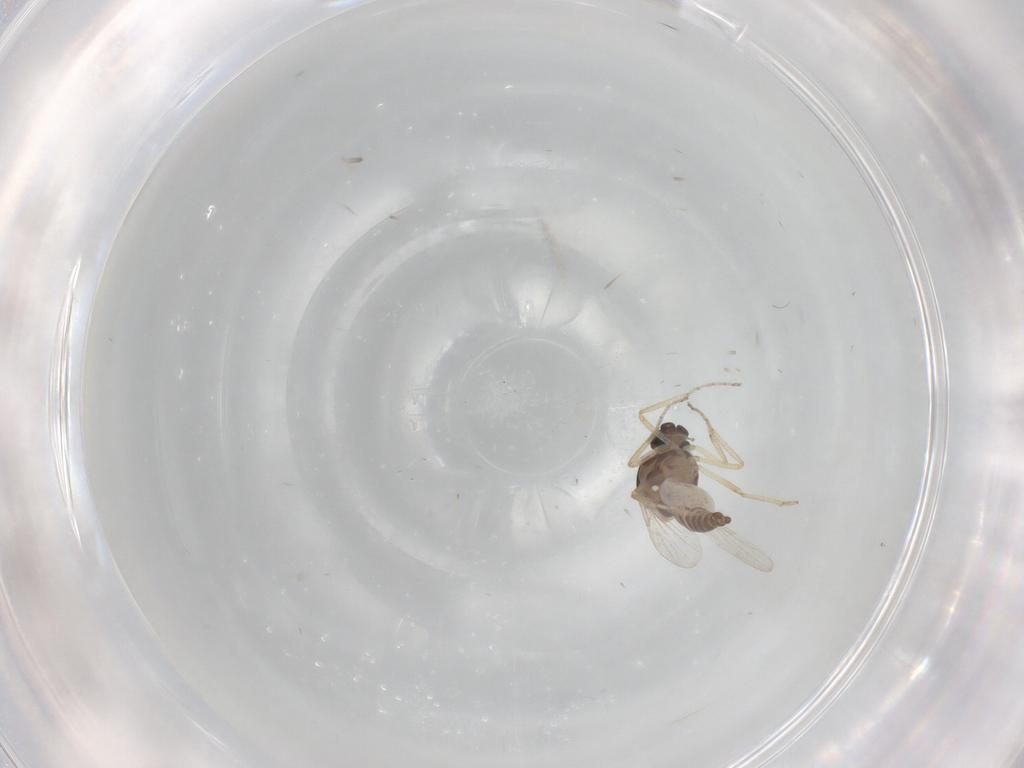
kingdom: Animalia
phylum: Arthropoda
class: Insecta
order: Diptera
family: Ceratopogonidae
